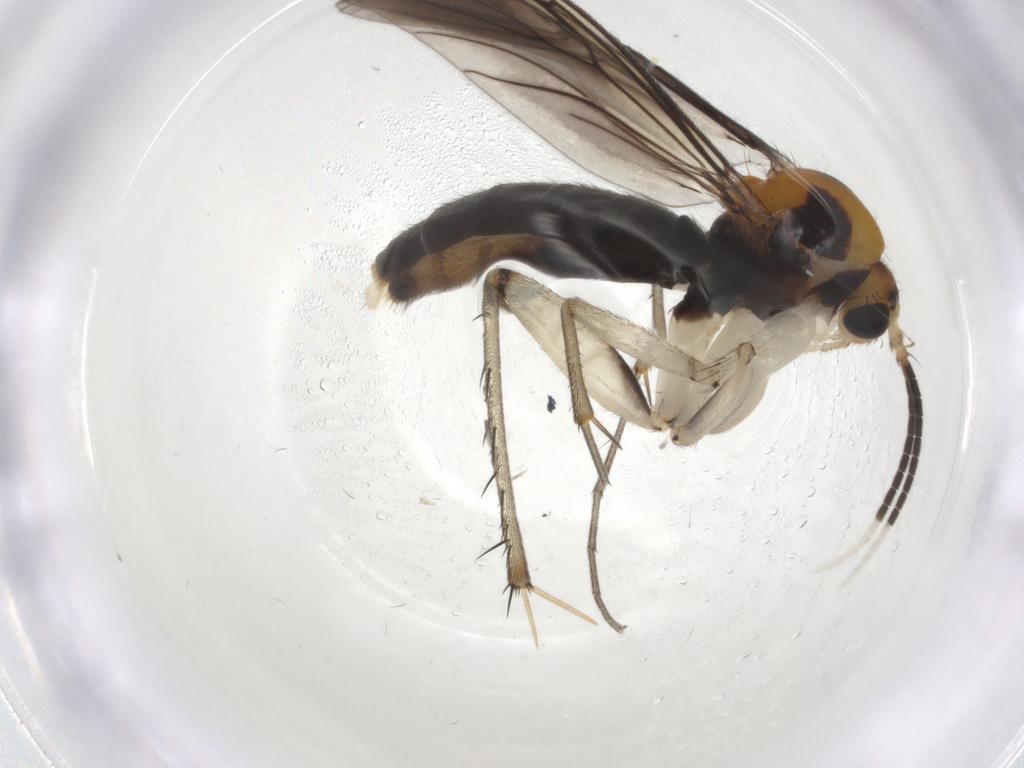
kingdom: Animalia
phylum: Arthropoda
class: Insecta
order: Diptera
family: Mycetophilidae
